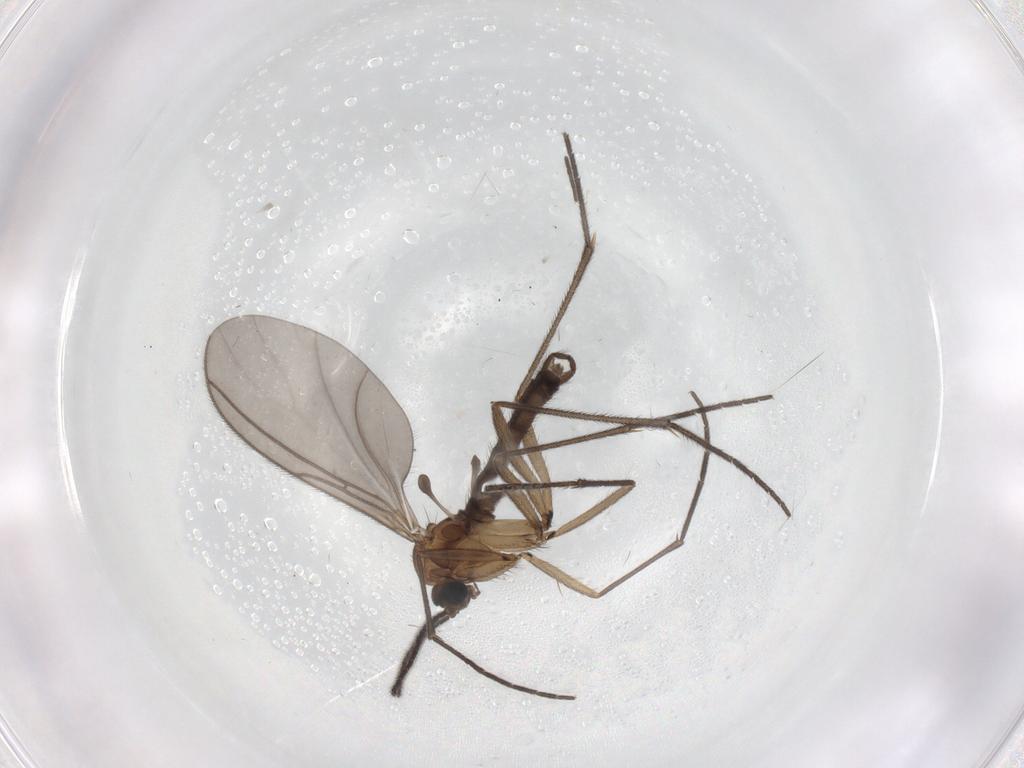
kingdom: Animalia
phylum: Arthropoda
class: Insecta
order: Diptera
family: Sciaridae
